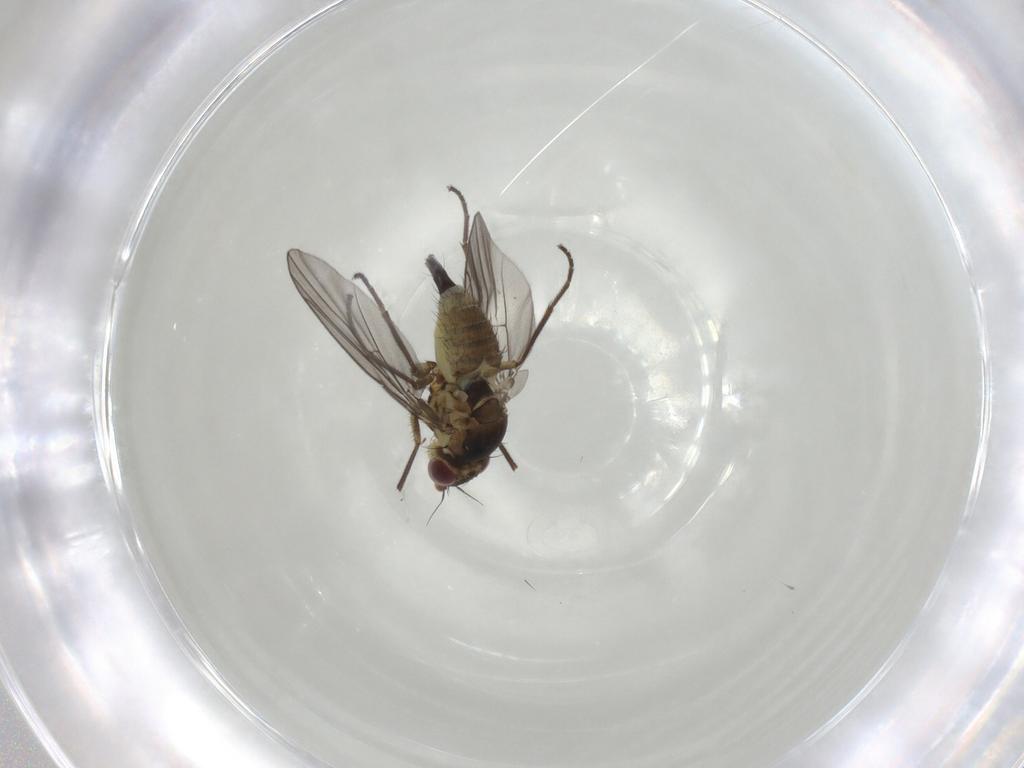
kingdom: Animalia
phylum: Arthropoda
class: Insecta
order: Diptera
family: Agromyzidae
